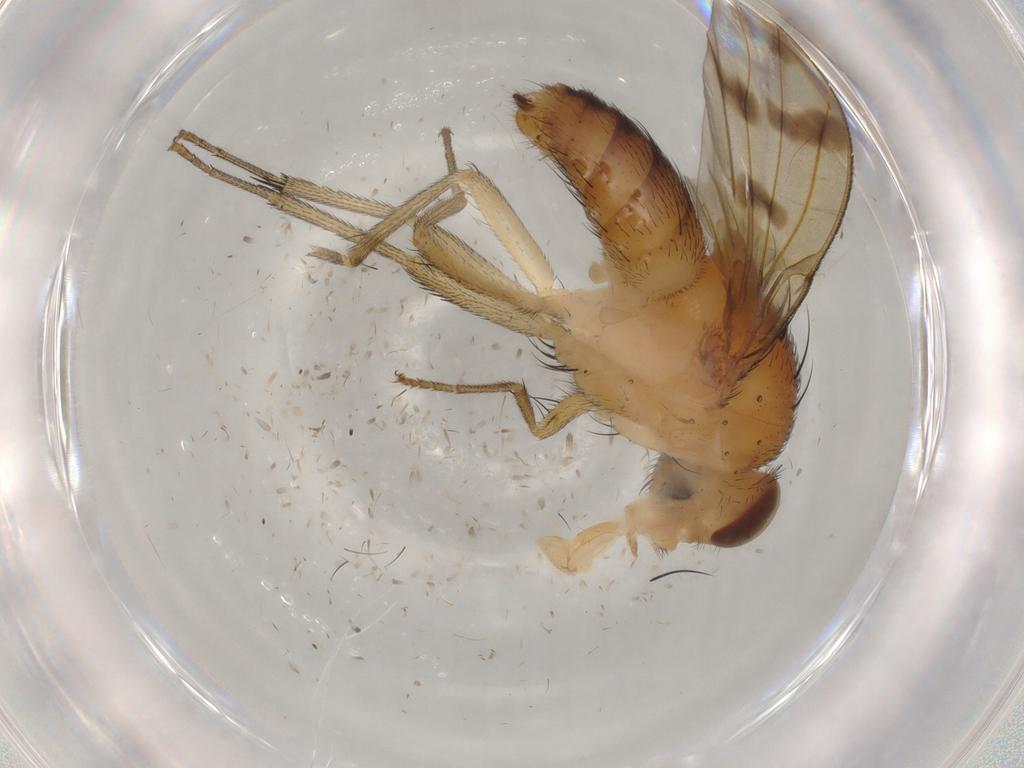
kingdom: Animalia
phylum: Arthropoda
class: Insecta
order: Diptera
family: Lauxaniidae
